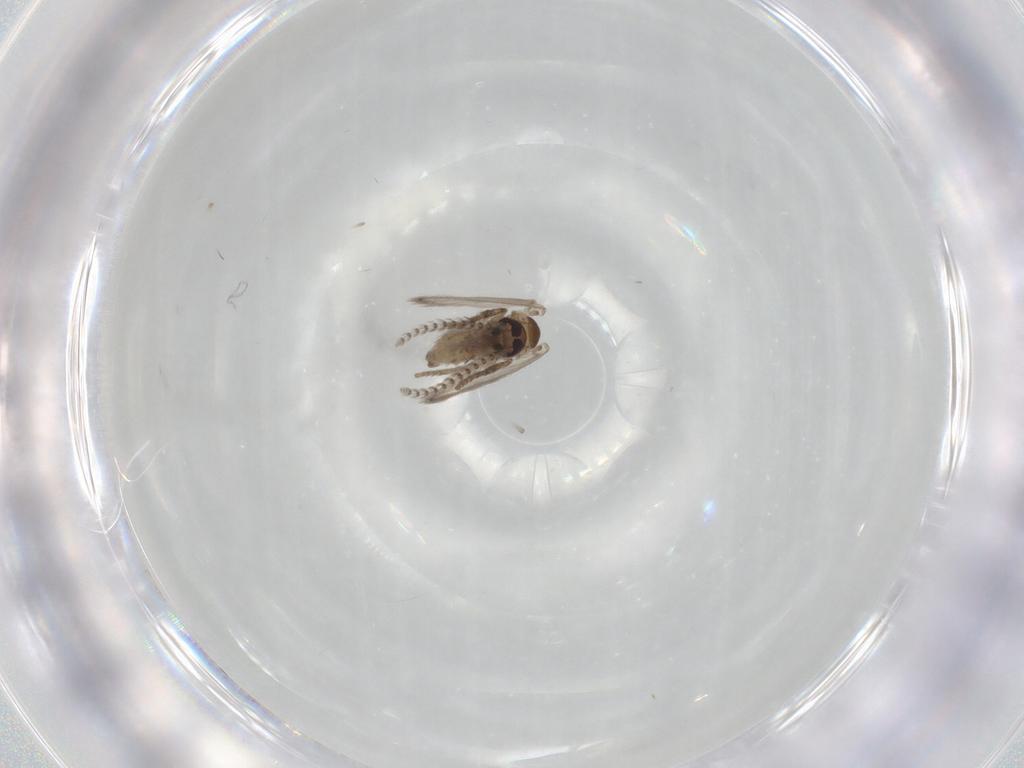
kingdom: Animalia
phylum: Arthropoda
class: Insecta
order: Diptera
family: Psychodidae
